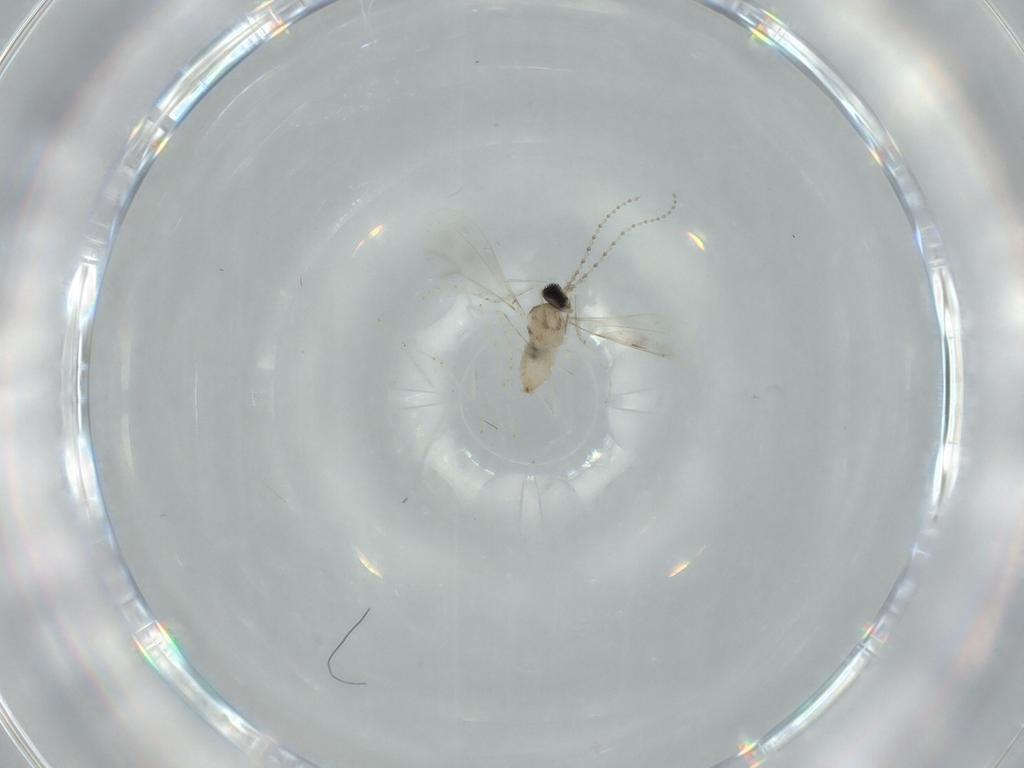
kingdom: Animalia
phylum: Arthropoda
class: Insecta
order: Diptera
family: Cecidomyiidae
